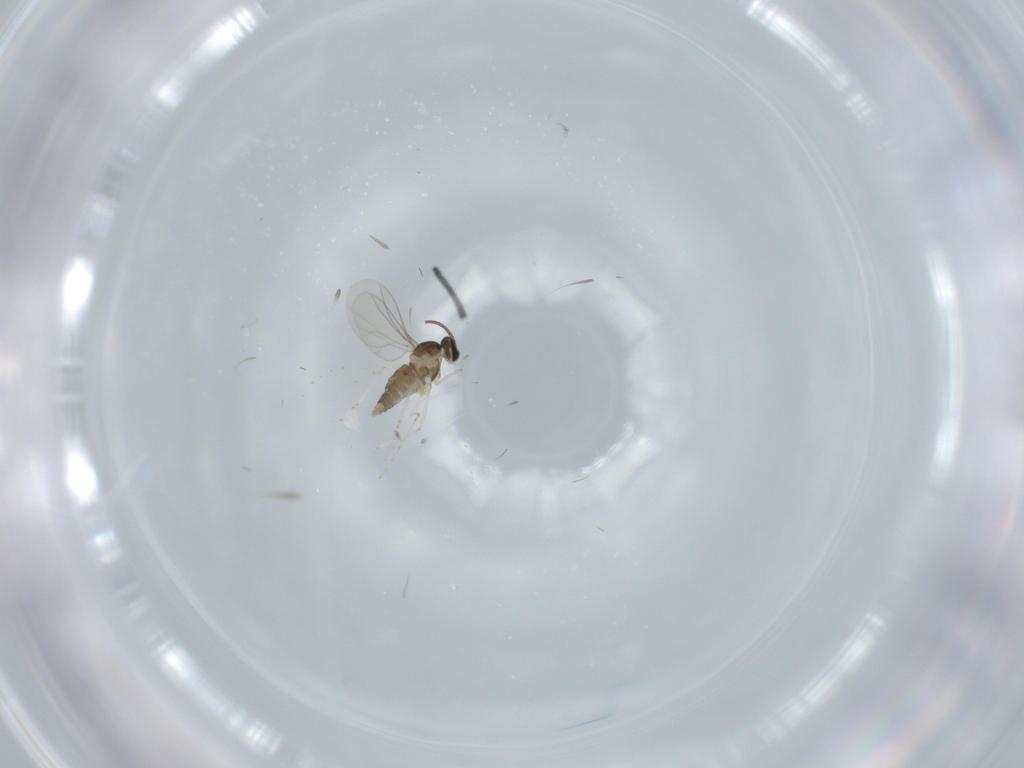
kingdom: Animalia
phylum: Arthropoda
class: Insecta
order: Diptera
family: Cecidomyiidae
